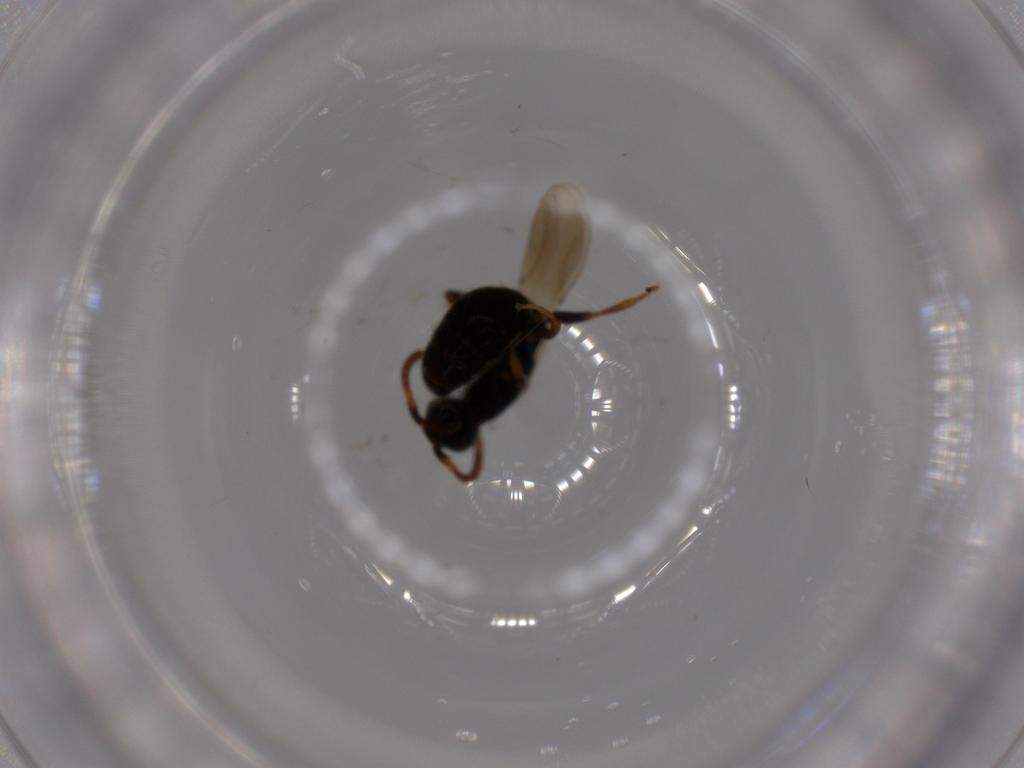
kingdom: Animalia
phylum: Arthropoda
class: Insecta
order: Hymenoptera
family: Bethylidae
